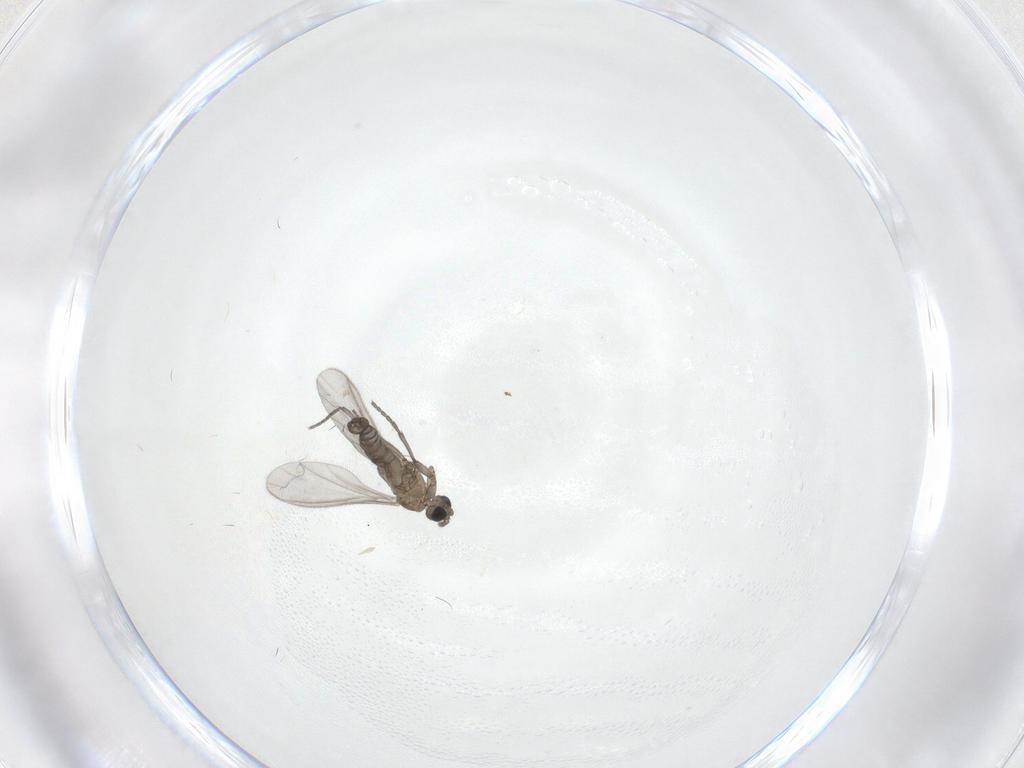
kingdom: Animalia
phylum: Arthropoda
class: Insecta
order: Diptera
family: Sciaridae
